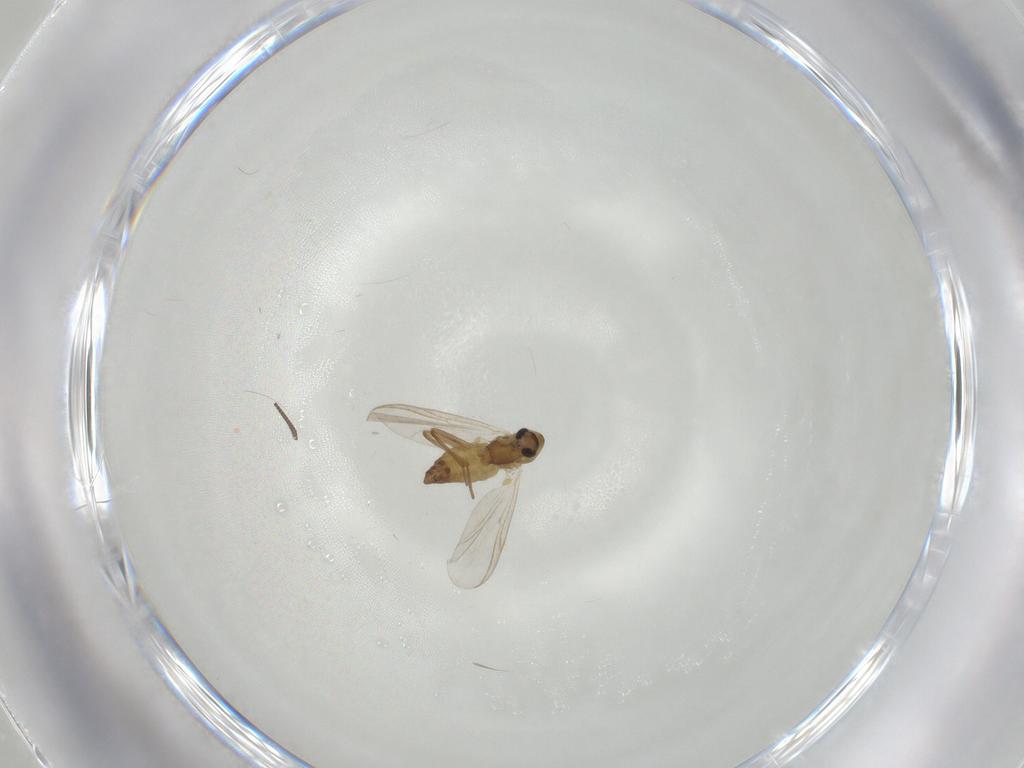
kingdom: Animalia
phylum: Arthropoda
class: Insecta
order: Diptera
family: Chironomidae
